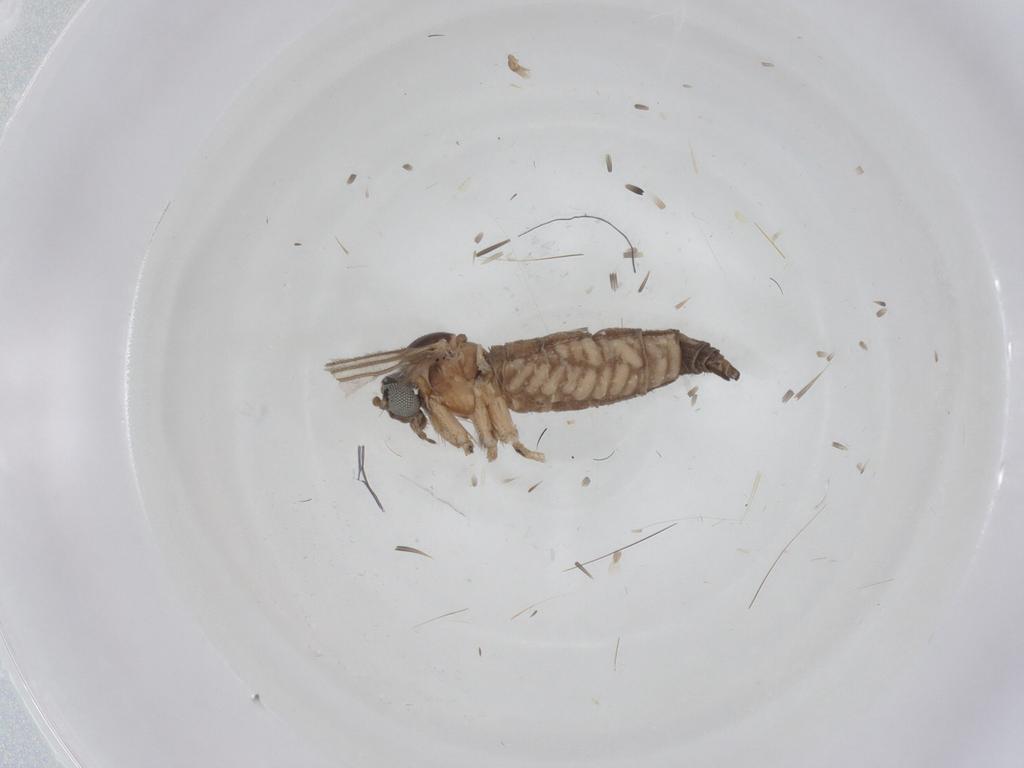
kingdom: Animalia
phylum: Arthropoda
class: Insecta
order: Diptera
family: Sciaridae
